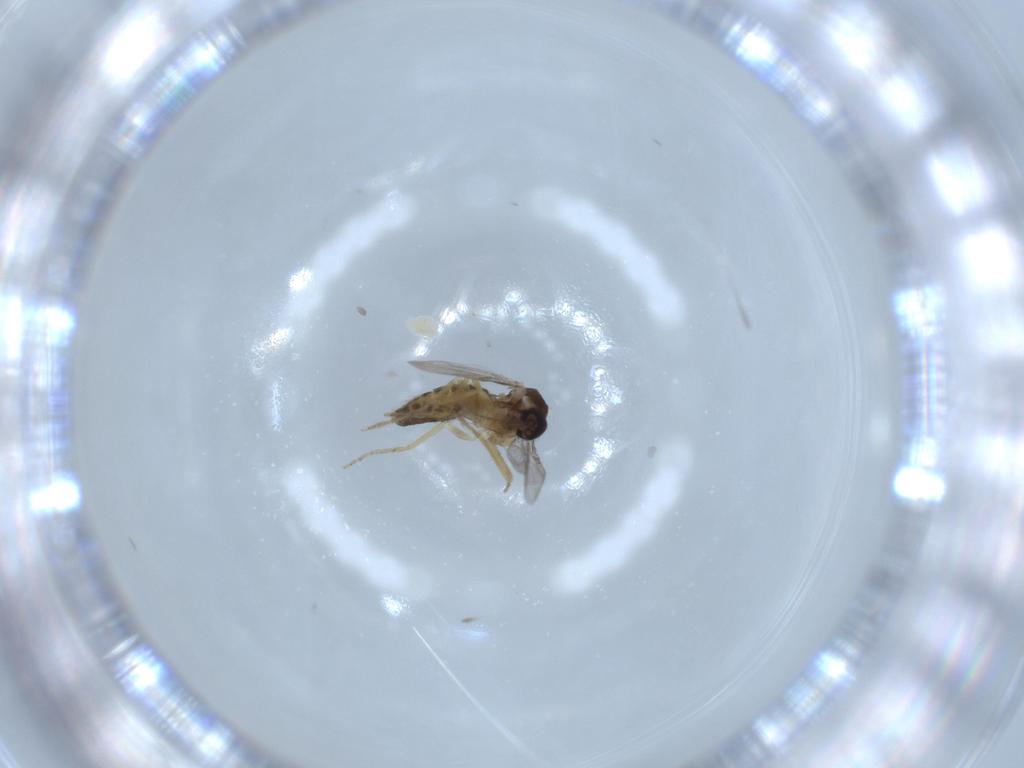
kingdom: Animalia
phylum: Arthropoda
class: Insecta
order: Diptera
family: Ceratopogonidae
